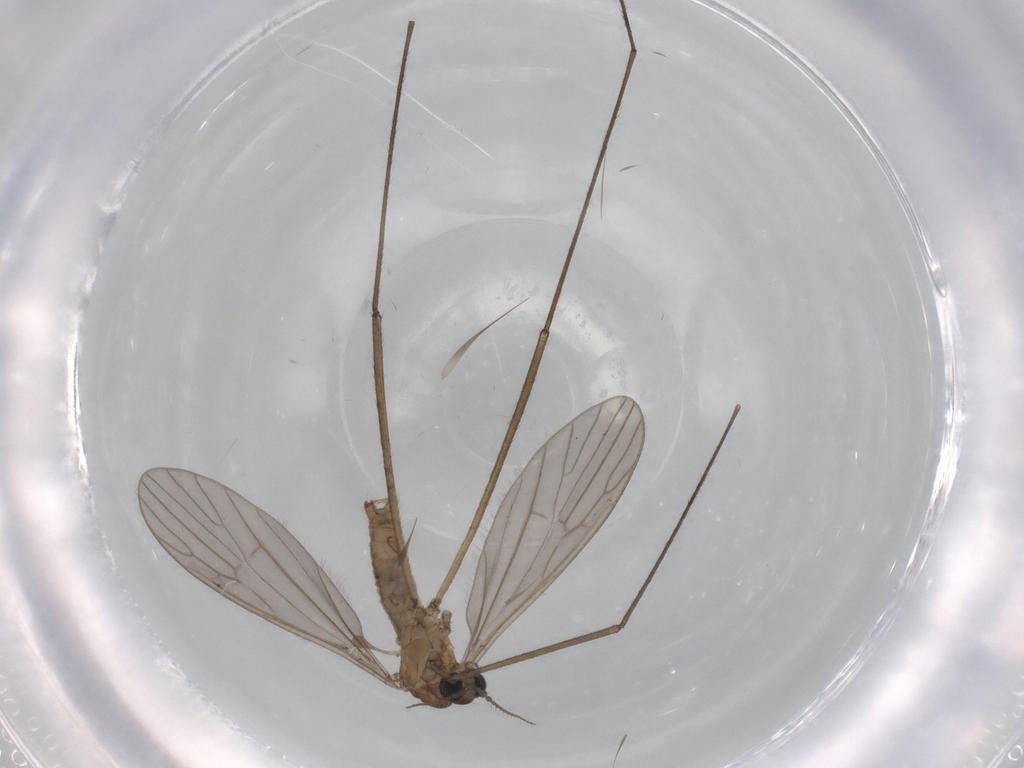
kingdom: Animalia
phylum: Arthropoda
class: Insecta
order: Diptera
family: Limoniidae
